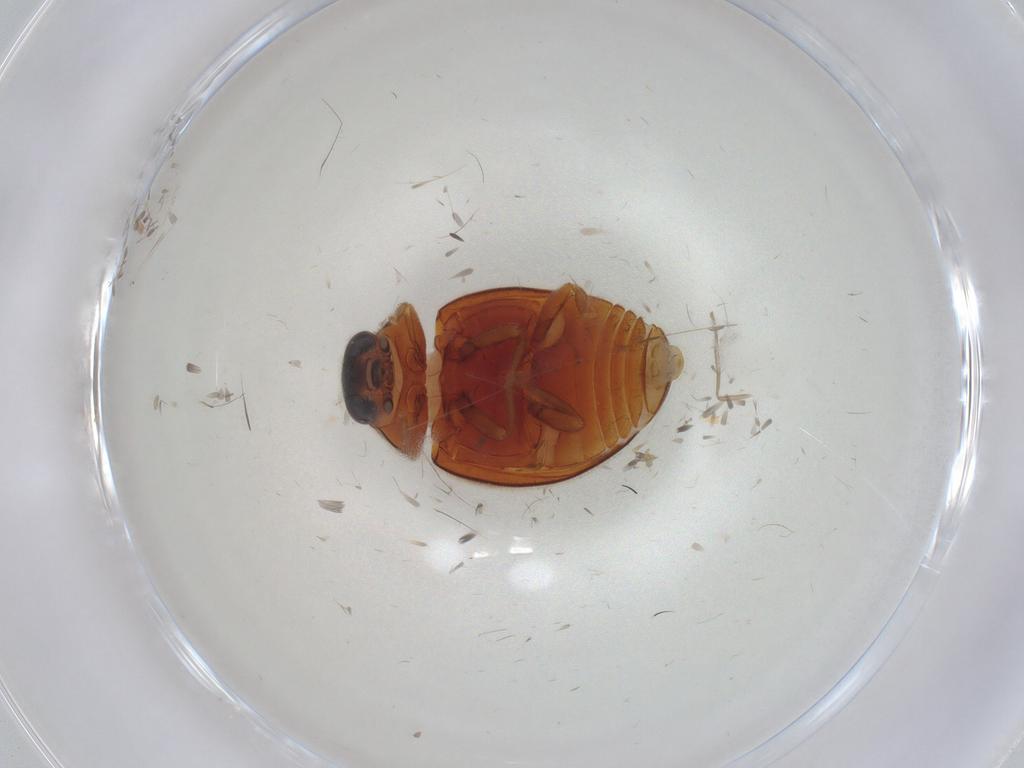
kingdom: Animalia
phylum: Arthropoda
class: Insecta
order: Coleoptera
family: Coccinellidae
